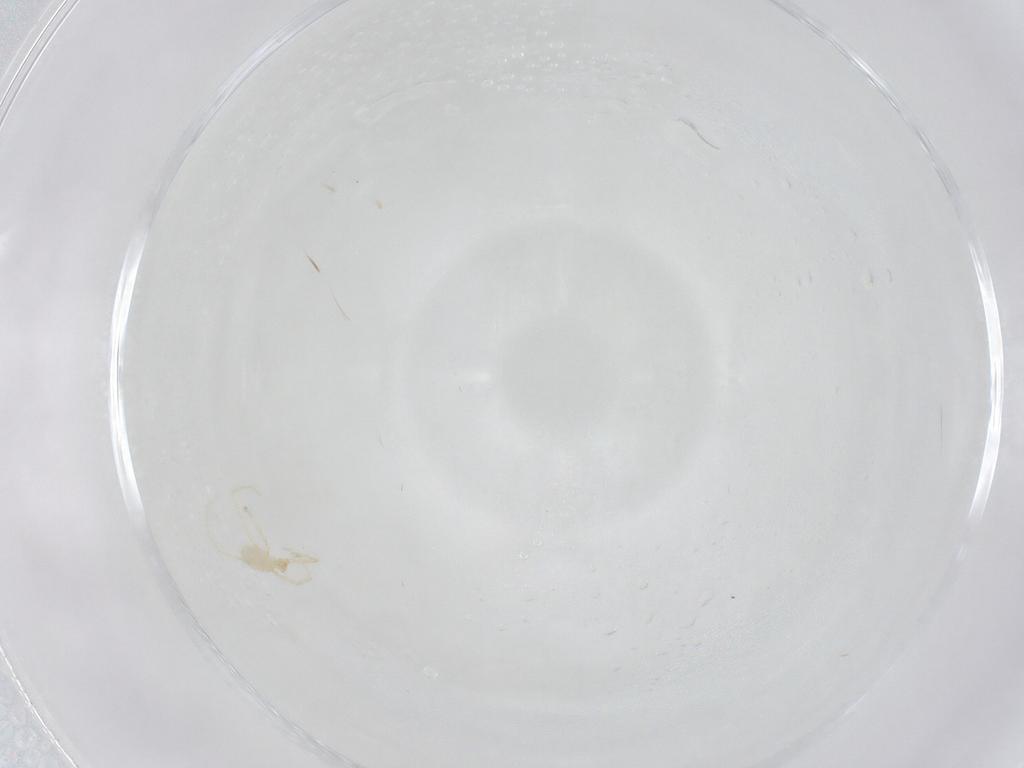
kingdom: Animalia
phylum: Arthropoda
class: Arachnida
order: Trombidiformes
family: Erythraeidae
